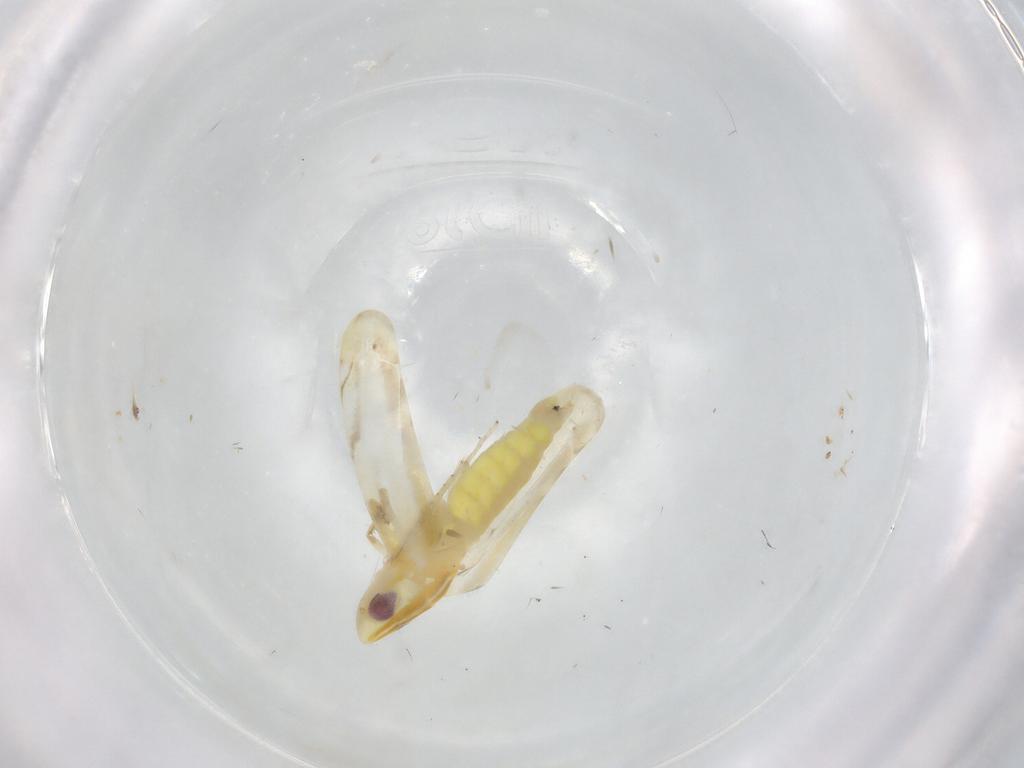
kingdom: Animalia
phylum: Arthropoda
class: Insecta
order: Hemiptera
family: Cicadellidae
